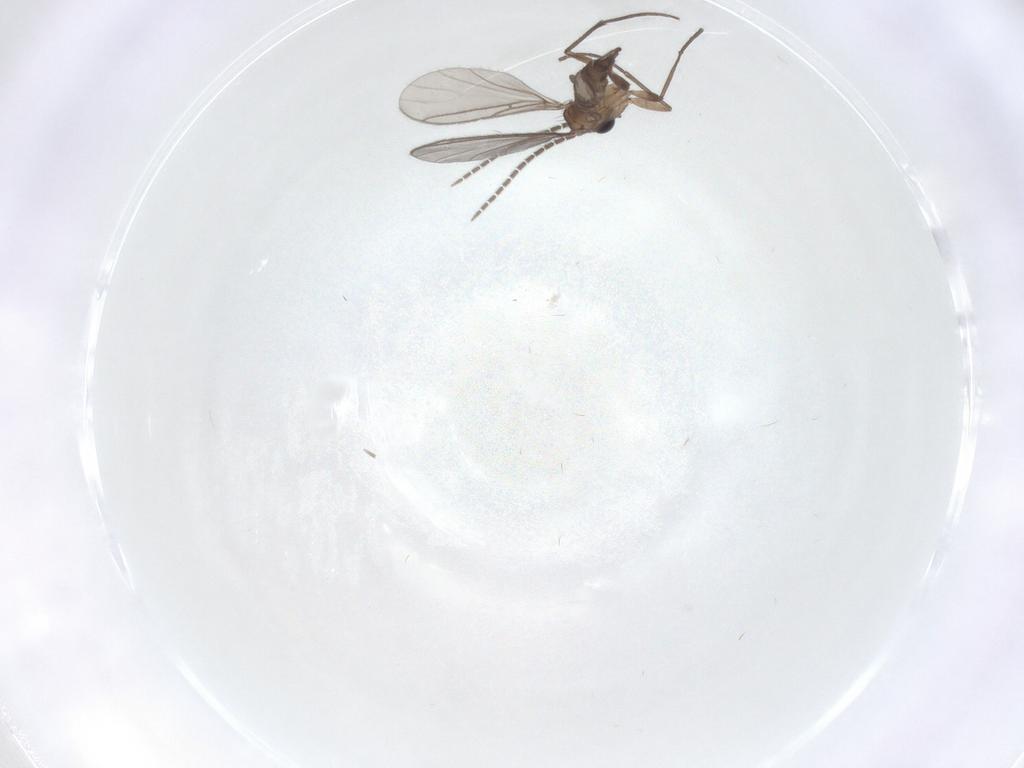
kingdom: Animalia
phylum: Arthropoda
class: Insecta
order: Diptera
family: Sciaridae
